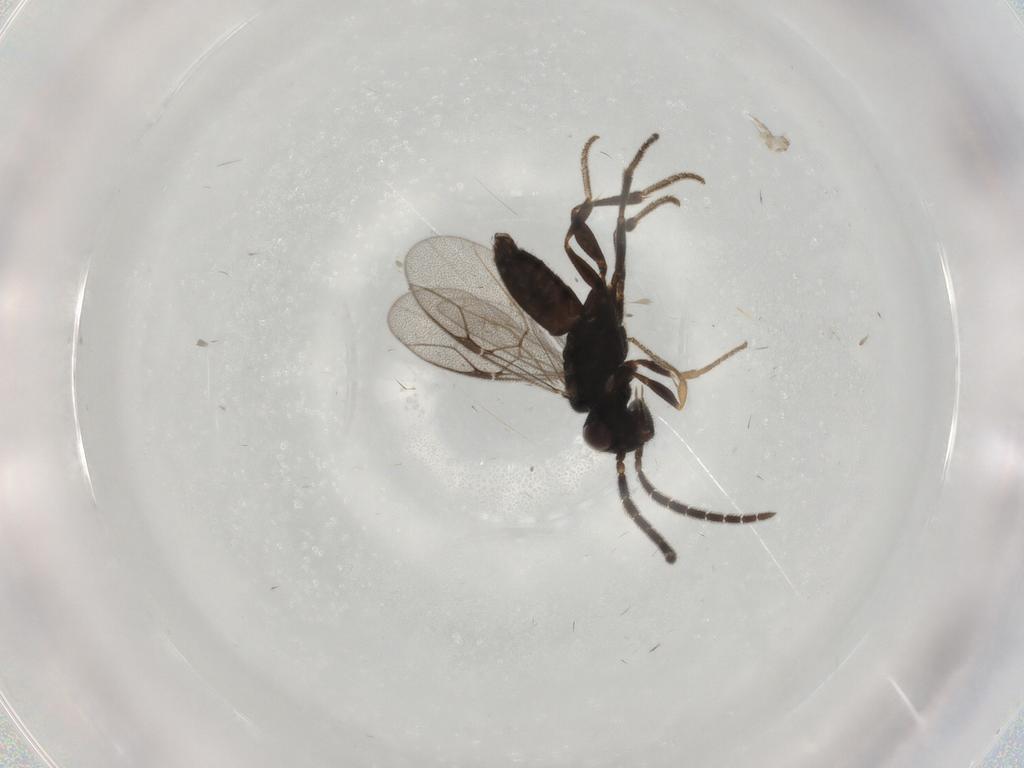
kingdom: Animalia
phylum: Arthropoda
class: Insecta
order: Hymenoptera
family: Dryinidae
